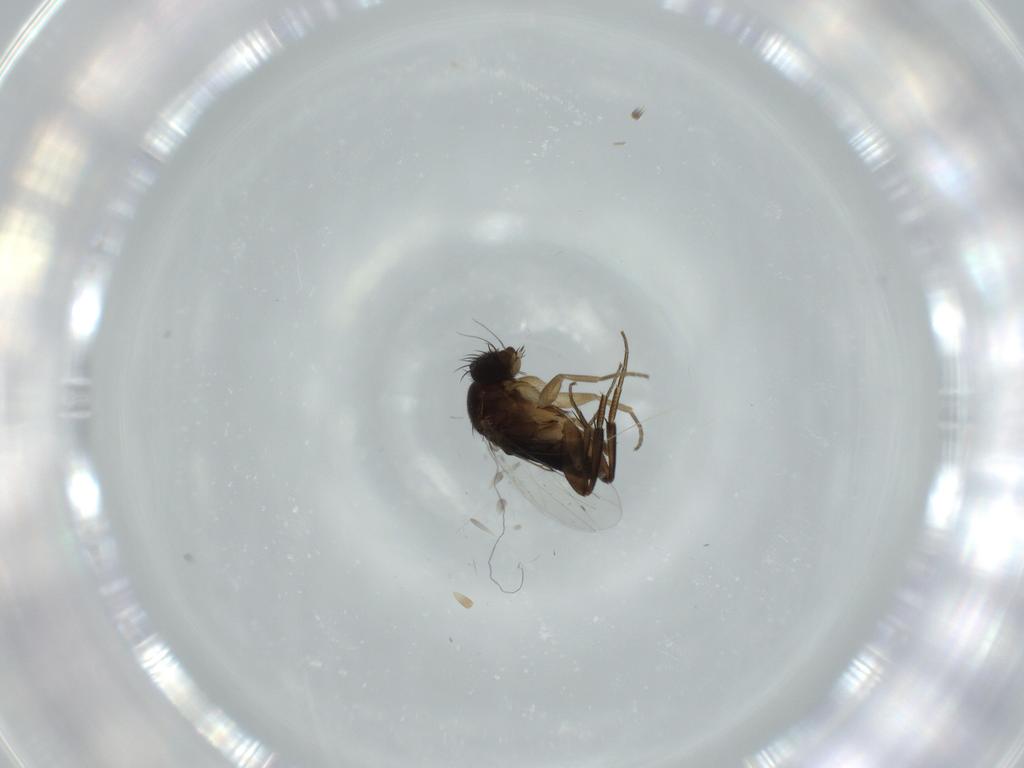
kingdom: Animalia
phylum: Arthropoda
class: Insecta
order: Diptera
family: Phoridae
